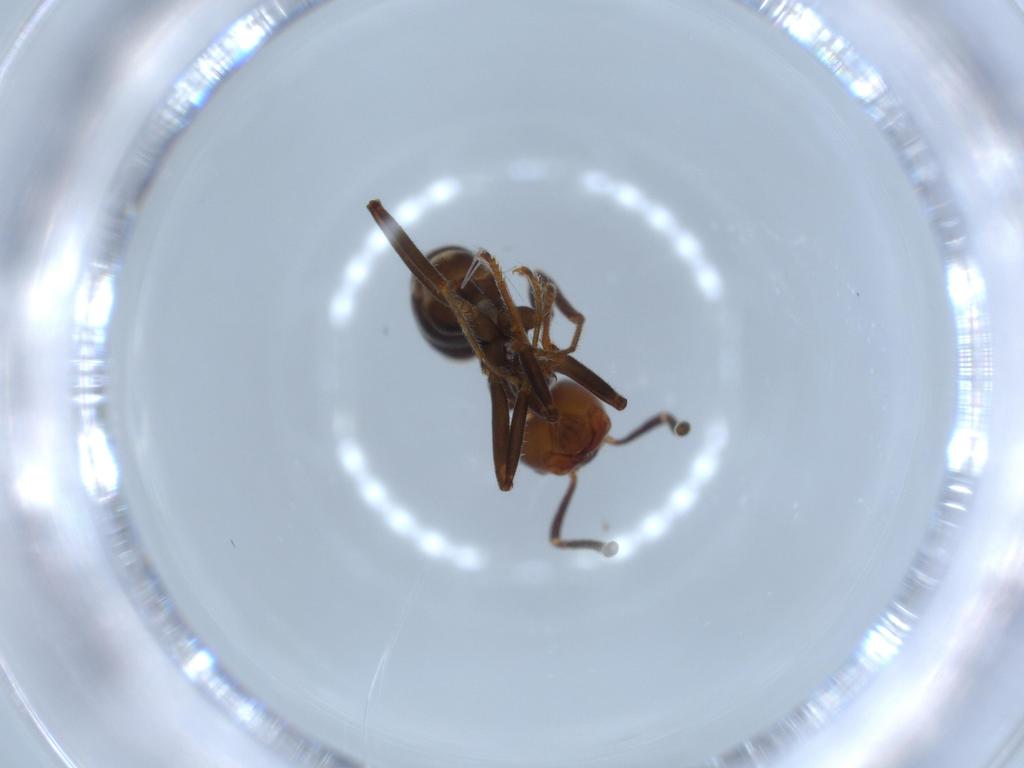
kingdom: Animalia
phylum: Arthropoda
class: Insecta
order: Hymenoptera
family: Formicidae
